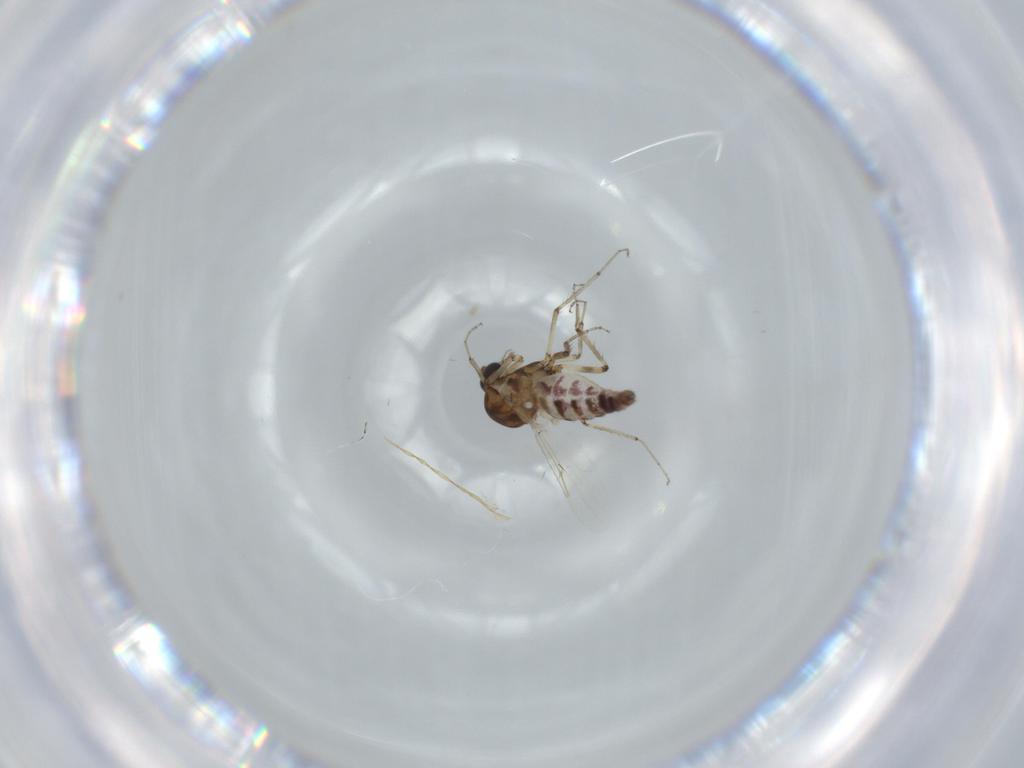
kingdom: Animalia
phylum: Arthropoda
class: Insecta
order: Diptera
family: Ceratopogonidae
